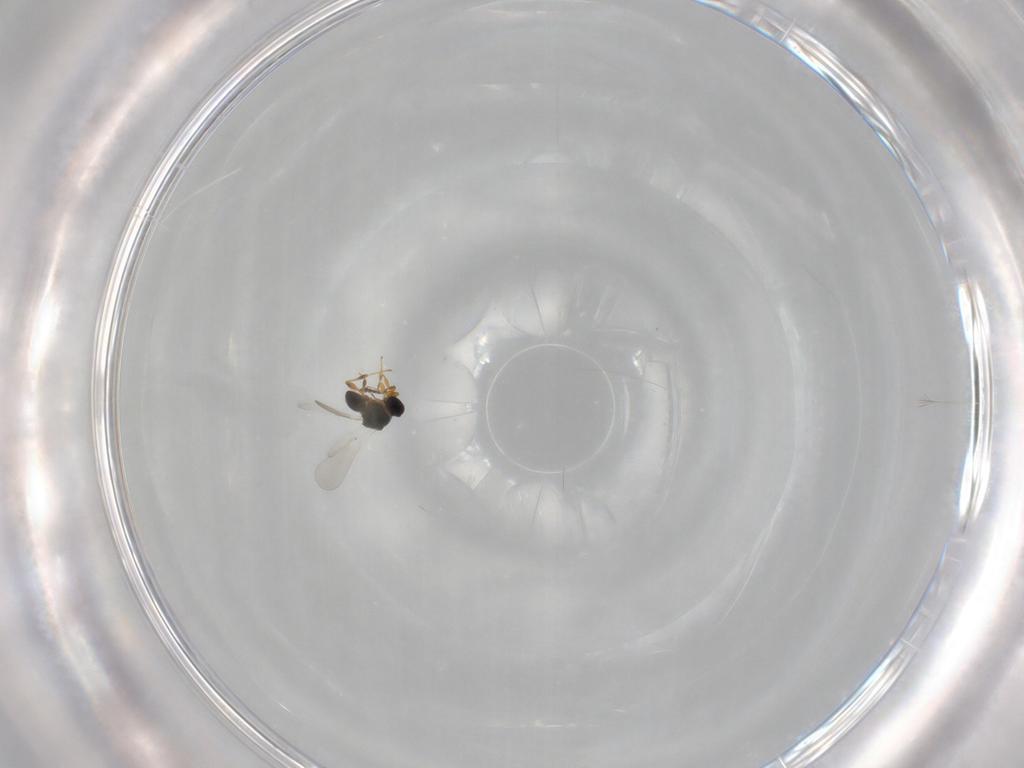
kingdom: Animalia
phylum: Arthropoda
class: Insecta
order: Hymenoptera
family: Platygastridae
